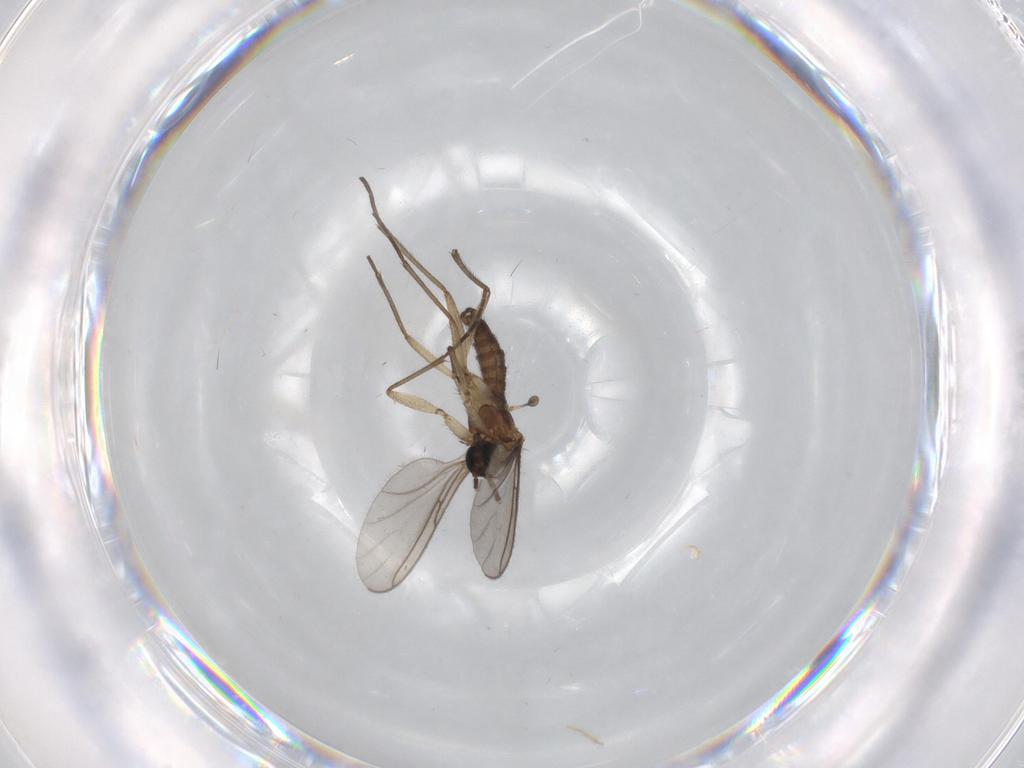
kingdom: Animalia
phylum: Arthropoda
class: Insecta
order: Diptera
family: Sciaridae
